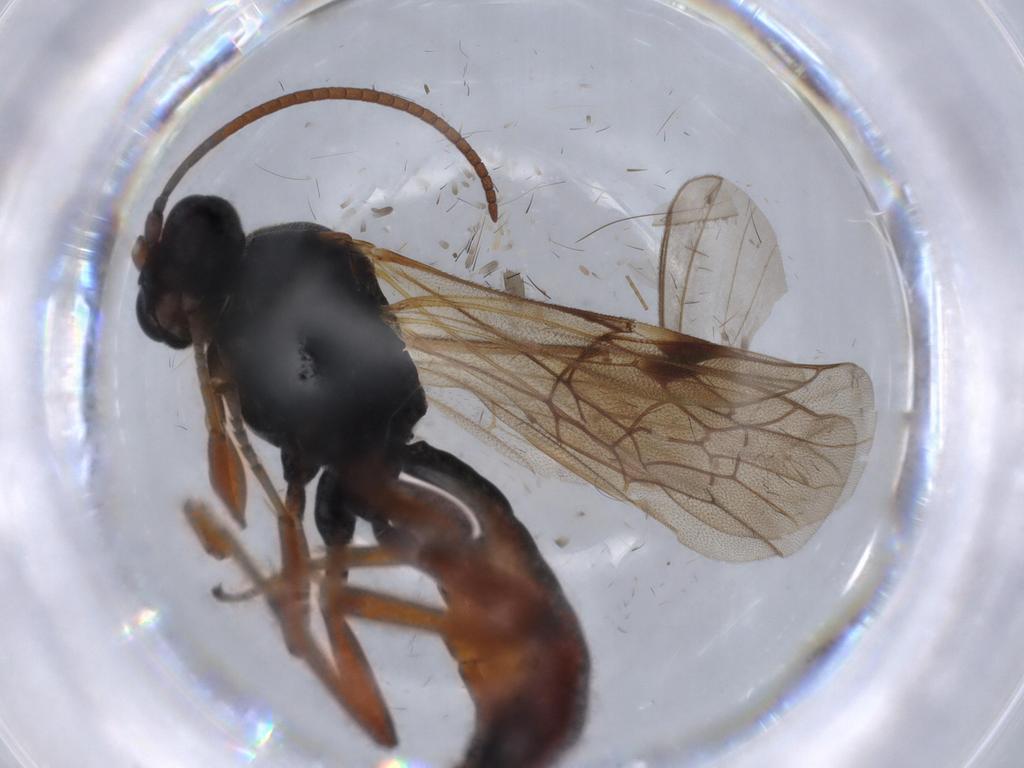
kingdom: Animalia
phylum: Arthropoda
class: Insecta
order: Hymenoptera
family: Ichneumonidae
